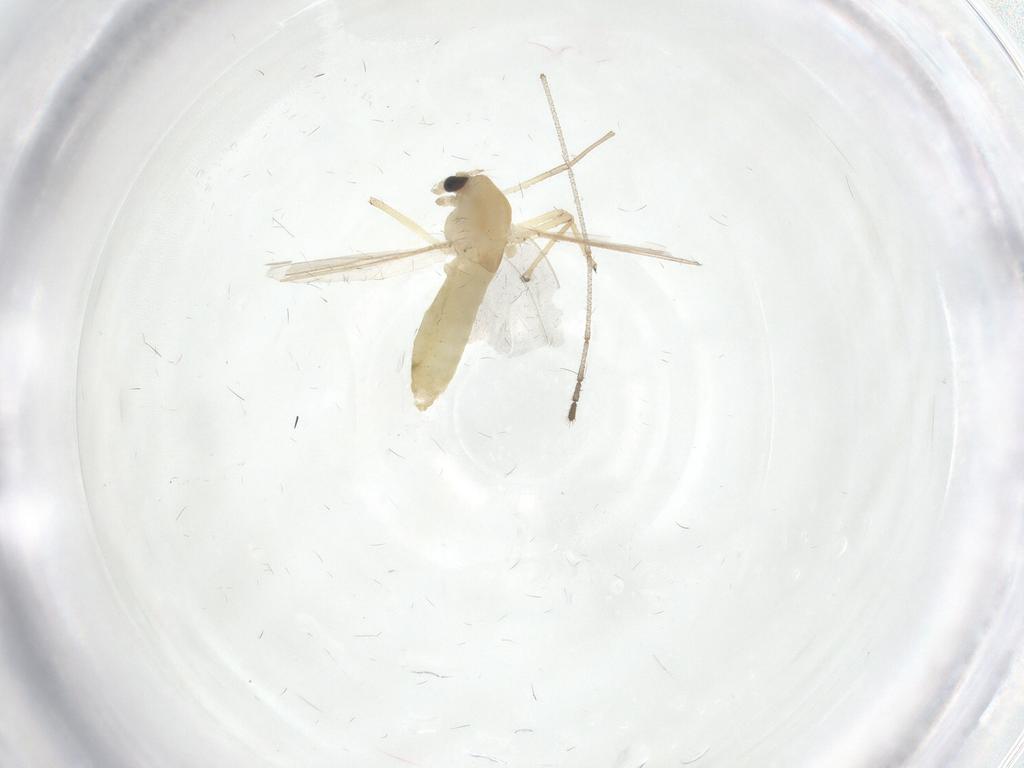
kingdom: Animalia
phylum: Arthropoda
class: Insecta
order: Diptera
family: Chironomidae
